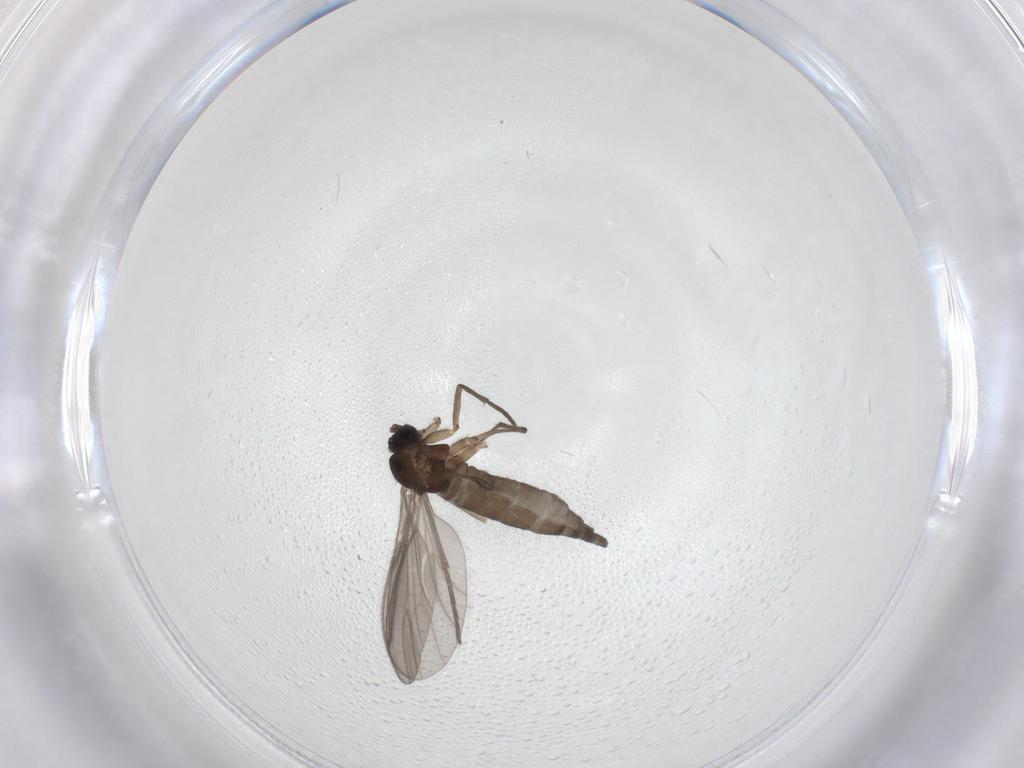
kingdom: Animalia
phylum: Arthropoda
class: Insecta
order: Diptera
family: Sciaridae
